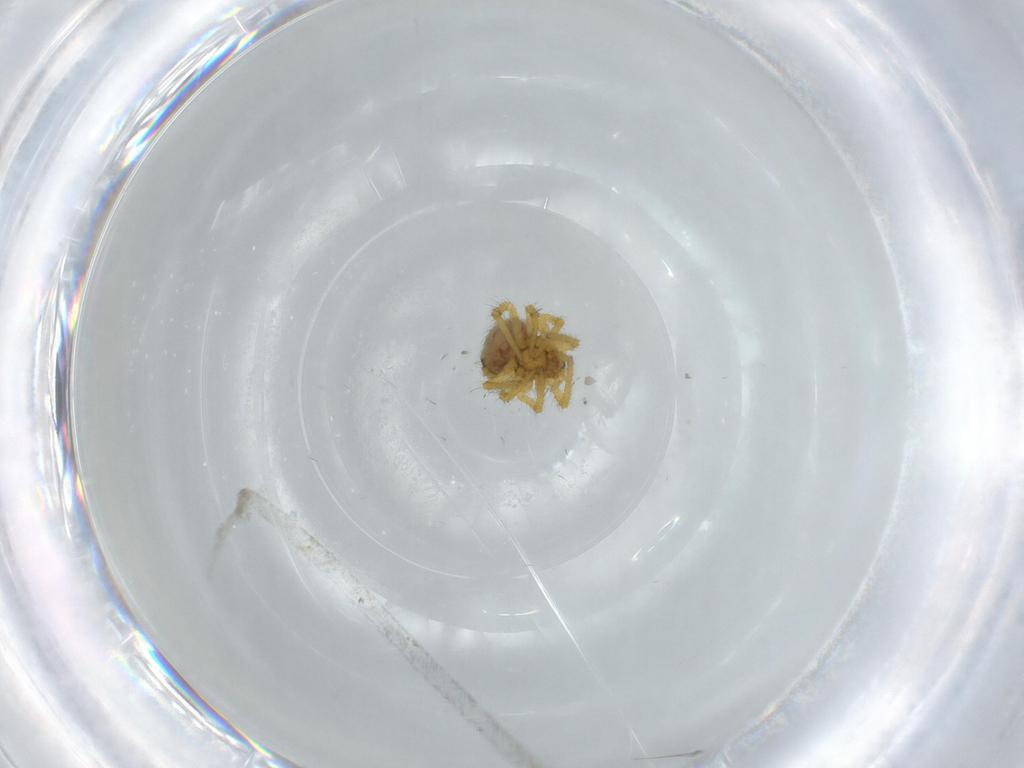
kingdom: Animalia
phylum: Arthropoda
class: Arachnida
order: Araneae
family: Theridiidae
